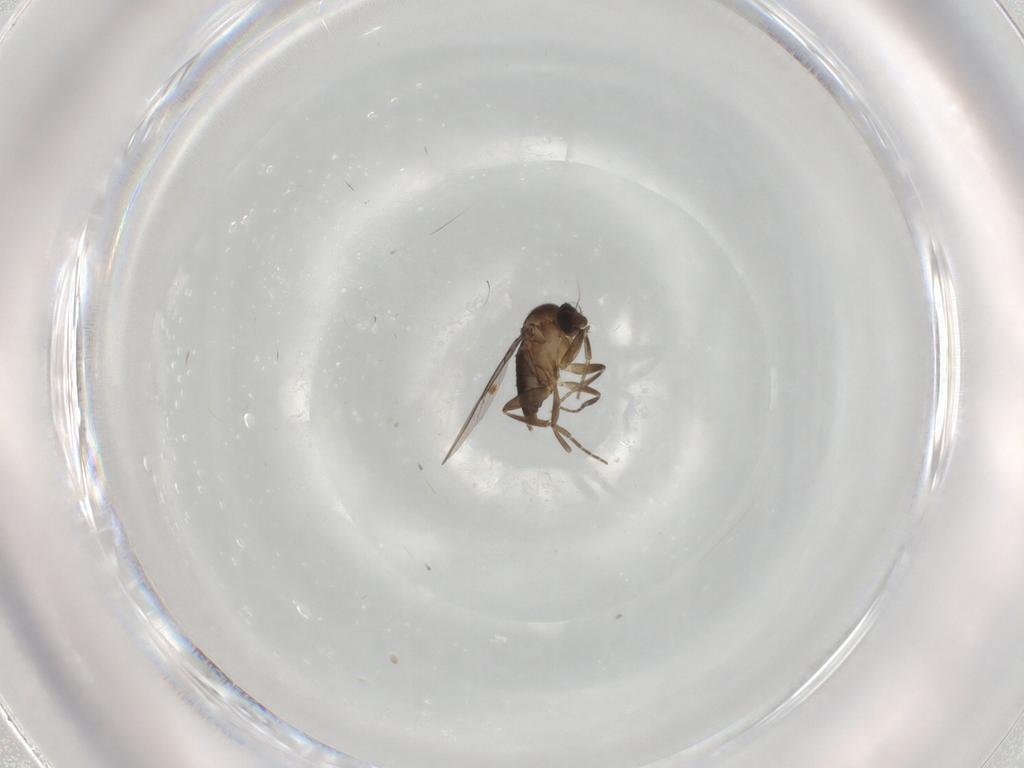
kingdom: Animalia
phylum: Arthropoda
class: Insecta
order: Diptera
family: Phoridae
